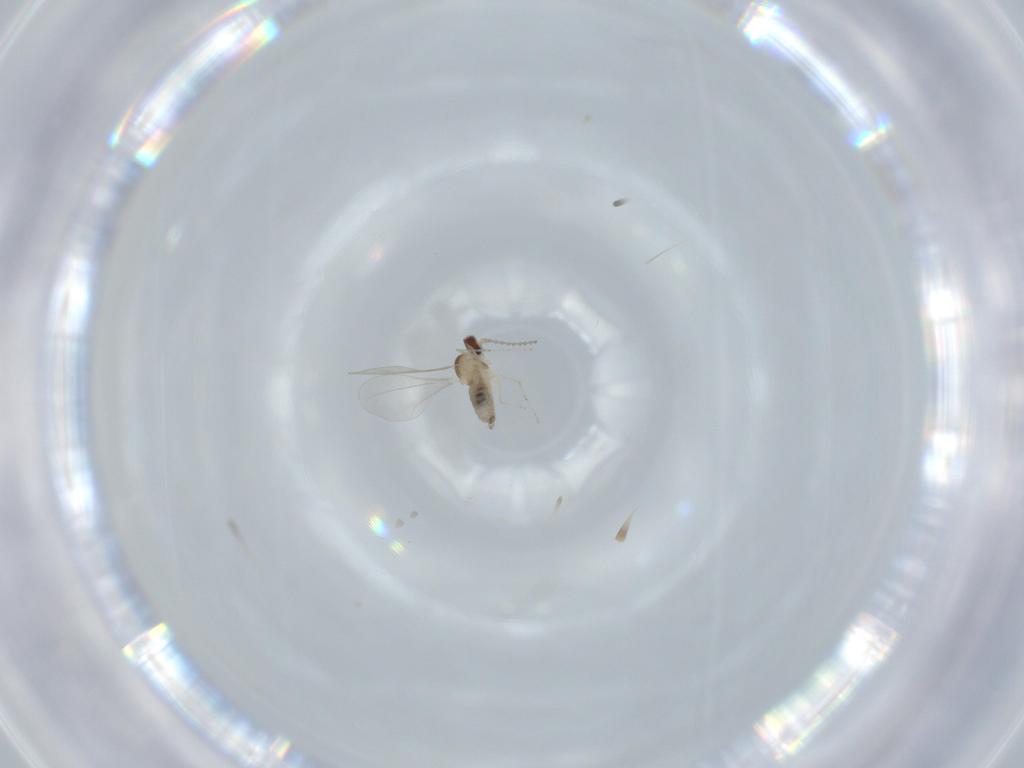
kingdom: Animalia
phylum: Arthropoda
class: Insecta
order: Diptera
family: Cecidomyiidae
